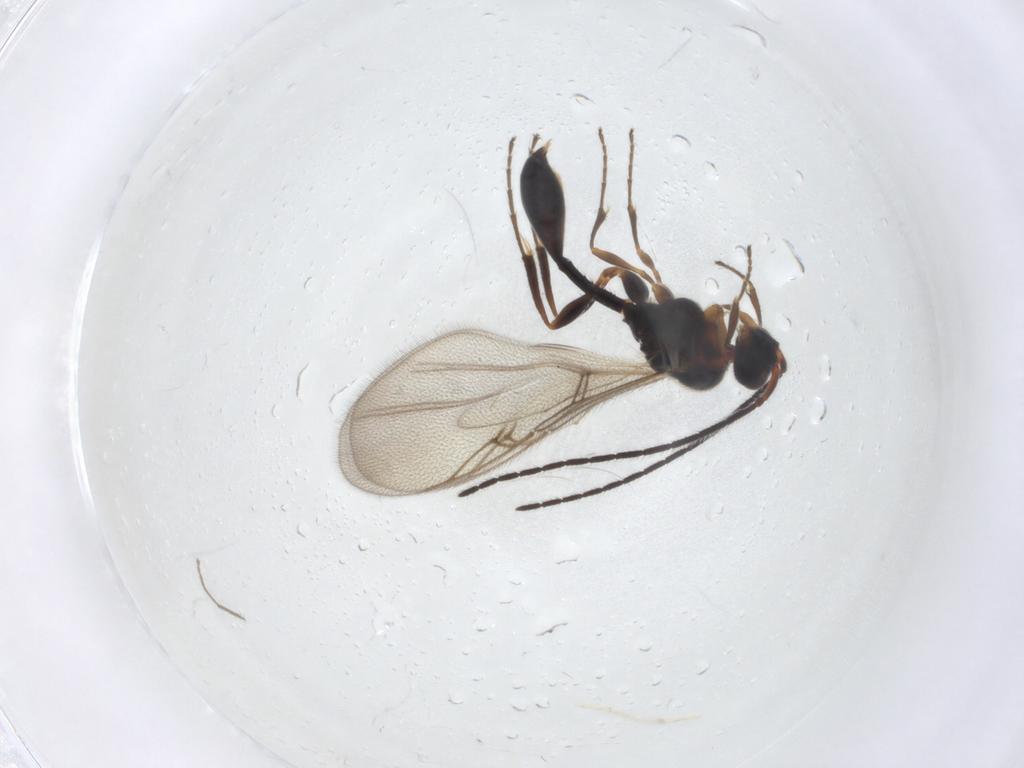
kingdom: Animalia
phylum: Arthropoda
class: Insecta
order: Hymenoptera
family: Diapriidae
